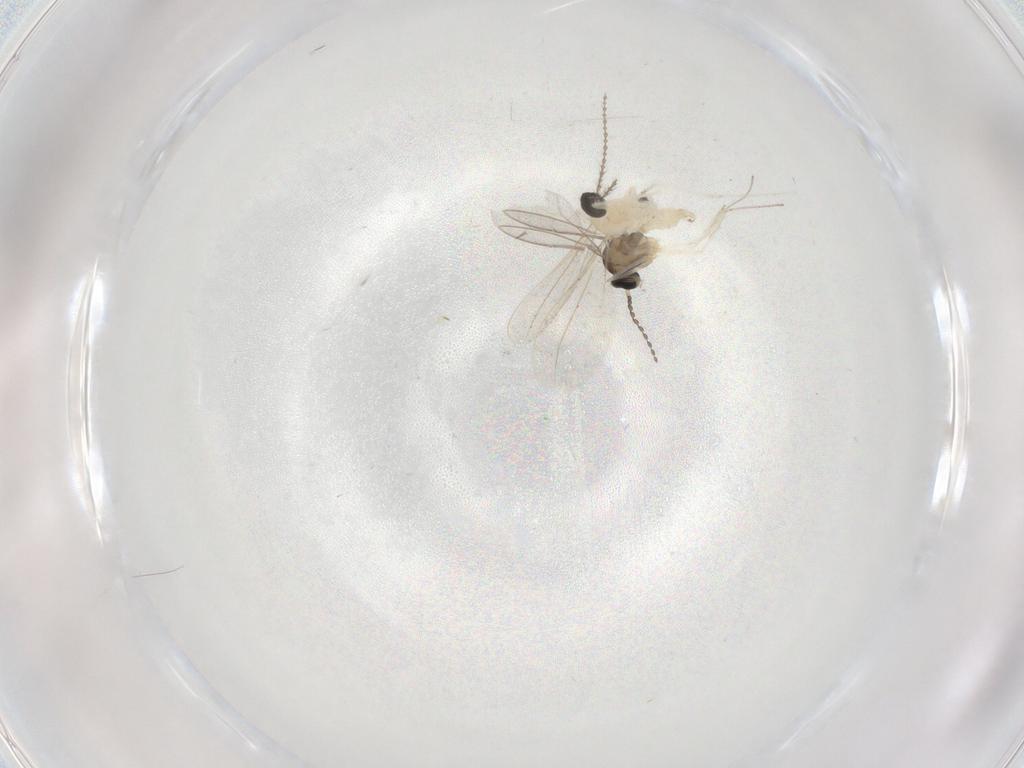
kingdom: Animalia
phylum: Arthropoda
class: Insecta
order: Diptera
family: Cecidomyiidae
